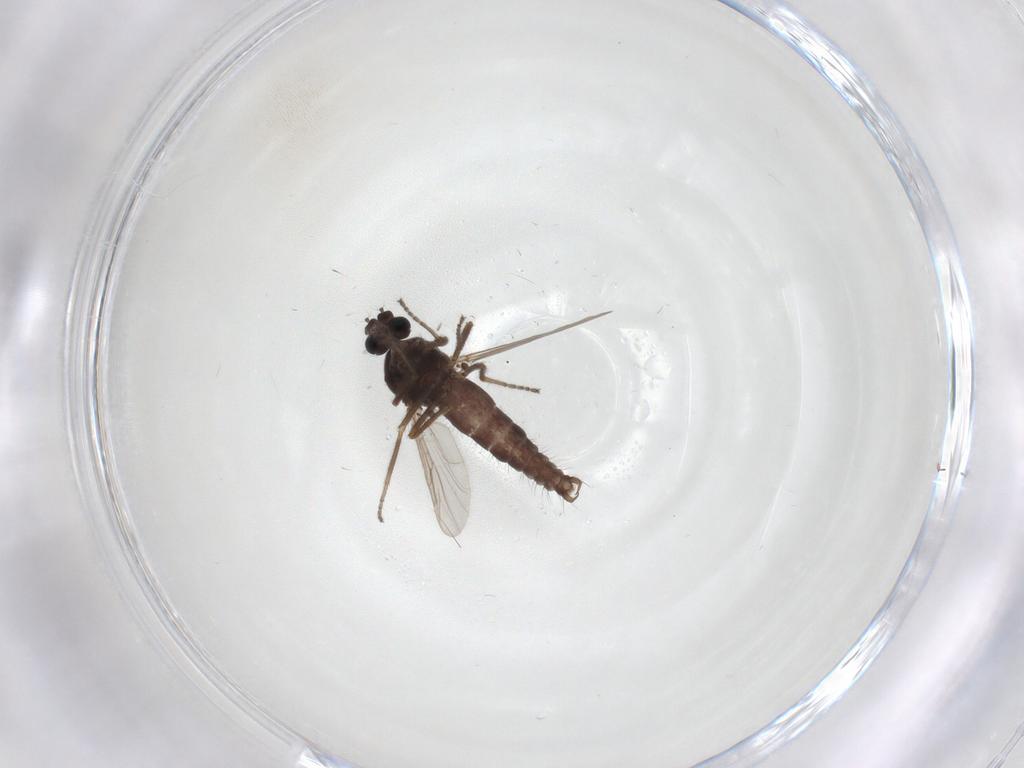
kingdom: Animalia
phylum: Arthropoda
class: Insecta
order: Diptera
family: Ceratopogonidae
